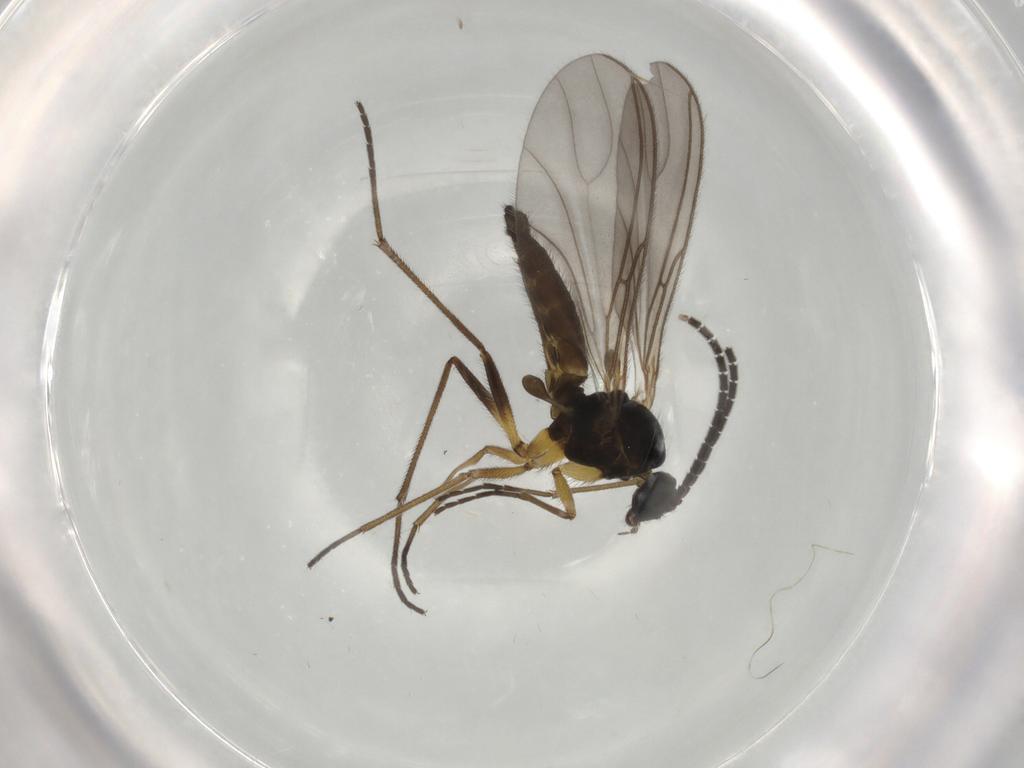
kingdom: Animalia
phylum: Arthropoda
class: Insecta
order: Diptera
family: Sciaridae
